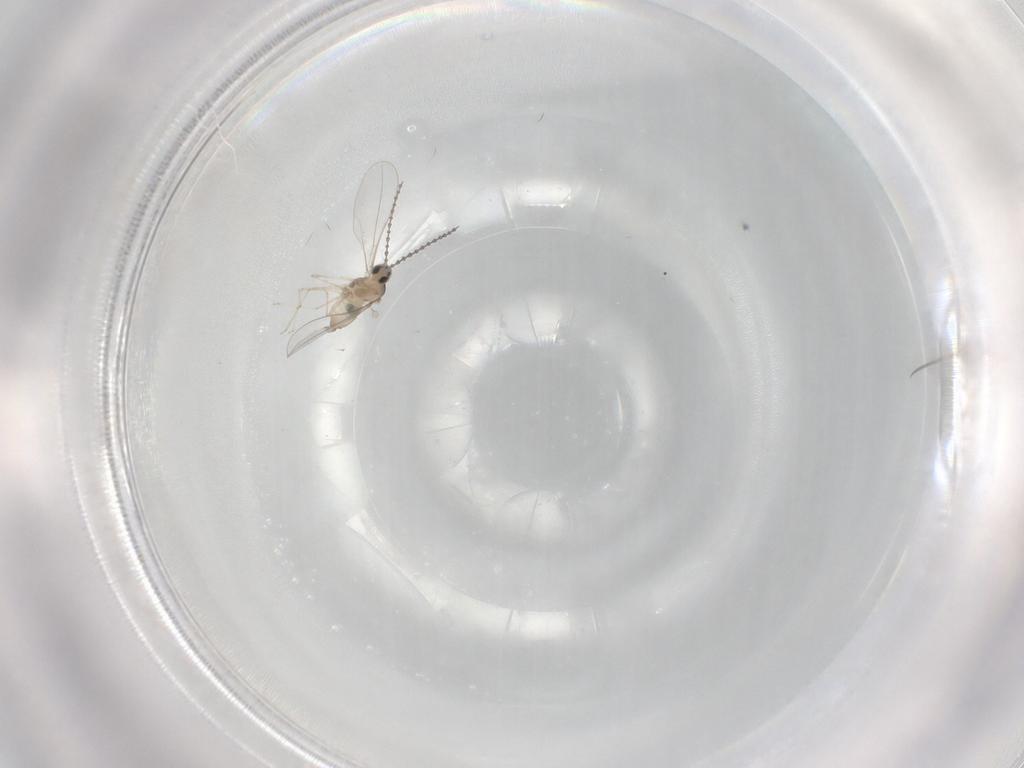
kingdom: Animalia
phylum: Arthropoda
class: Insecta
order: Diptera
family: Cecidomyiidae
